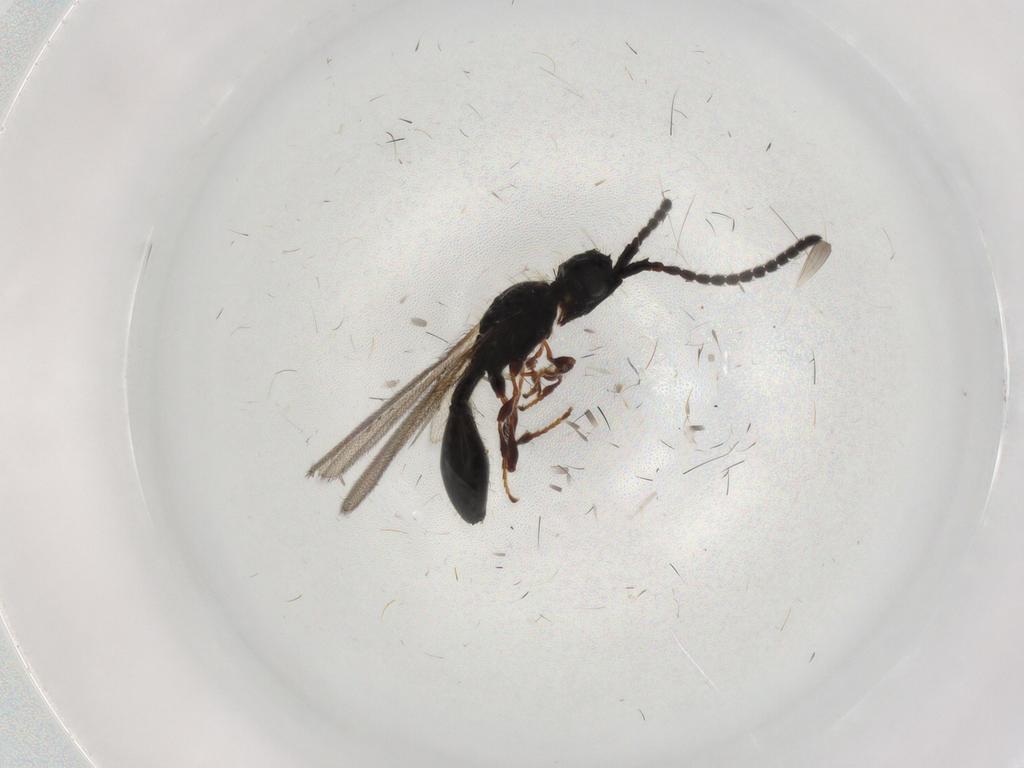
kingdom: Animalia
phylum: Arthropoda
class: Insecta
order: Hymenoptera
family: Diapriidae
